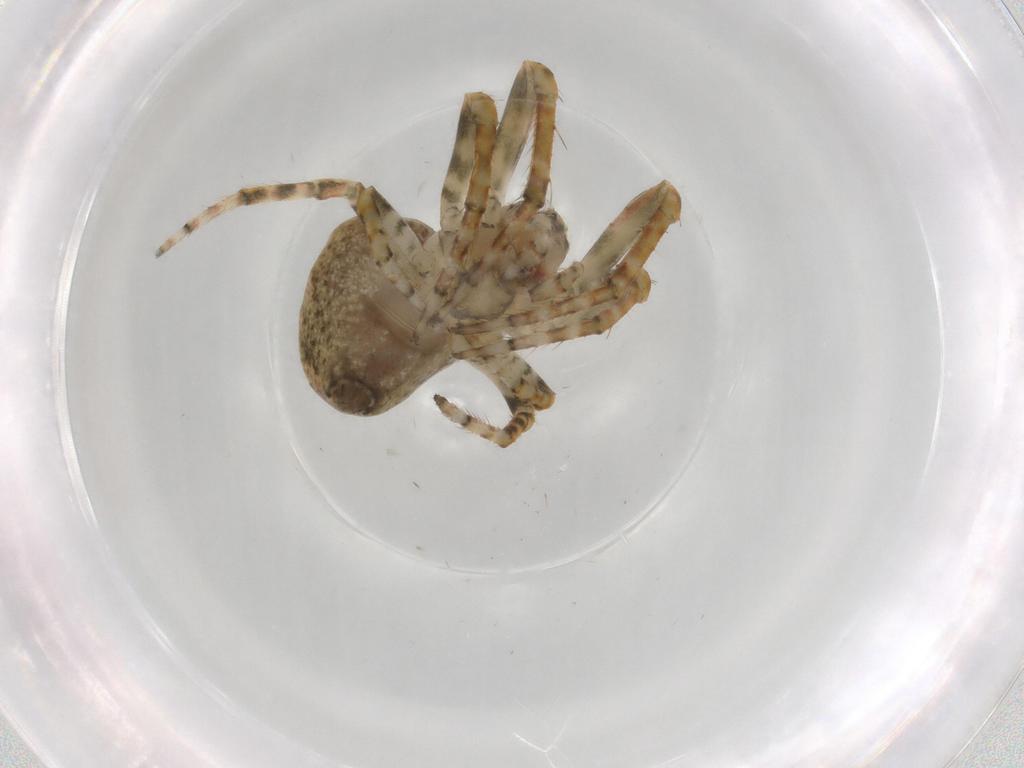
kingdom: Animalia
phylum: Arthropoda
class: Arachnida
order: Araneae
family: Araneidae
